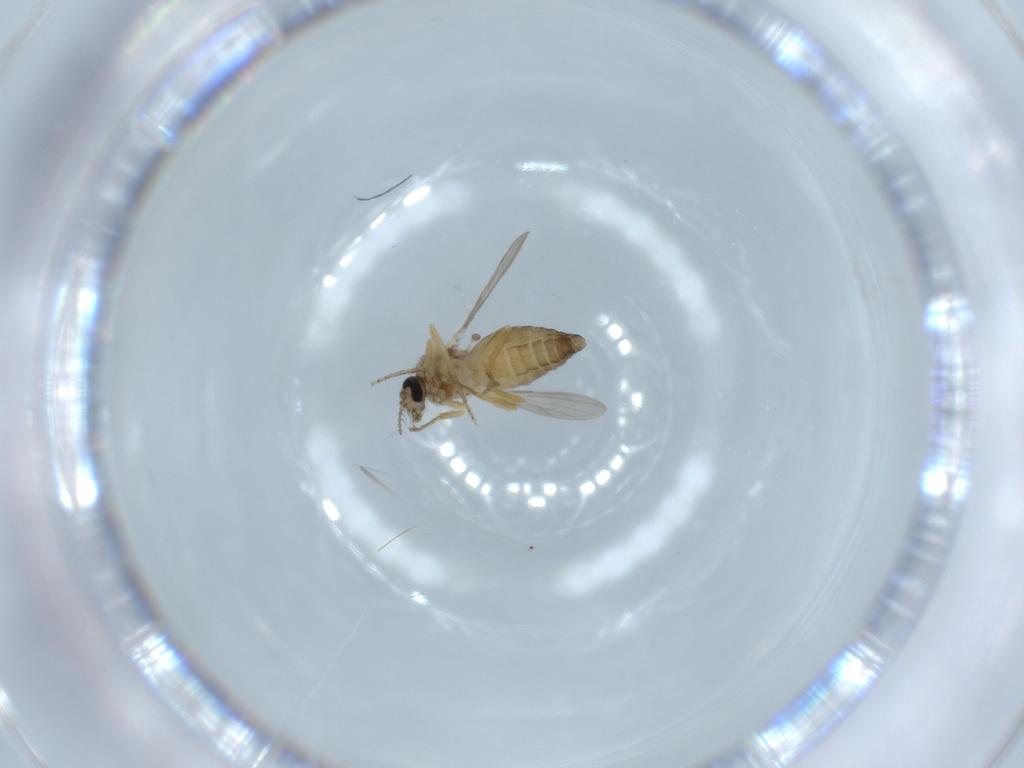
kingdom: Animalia
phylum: Arthropoda
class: Insecta
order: Diptera
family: Ceratopogonidae
